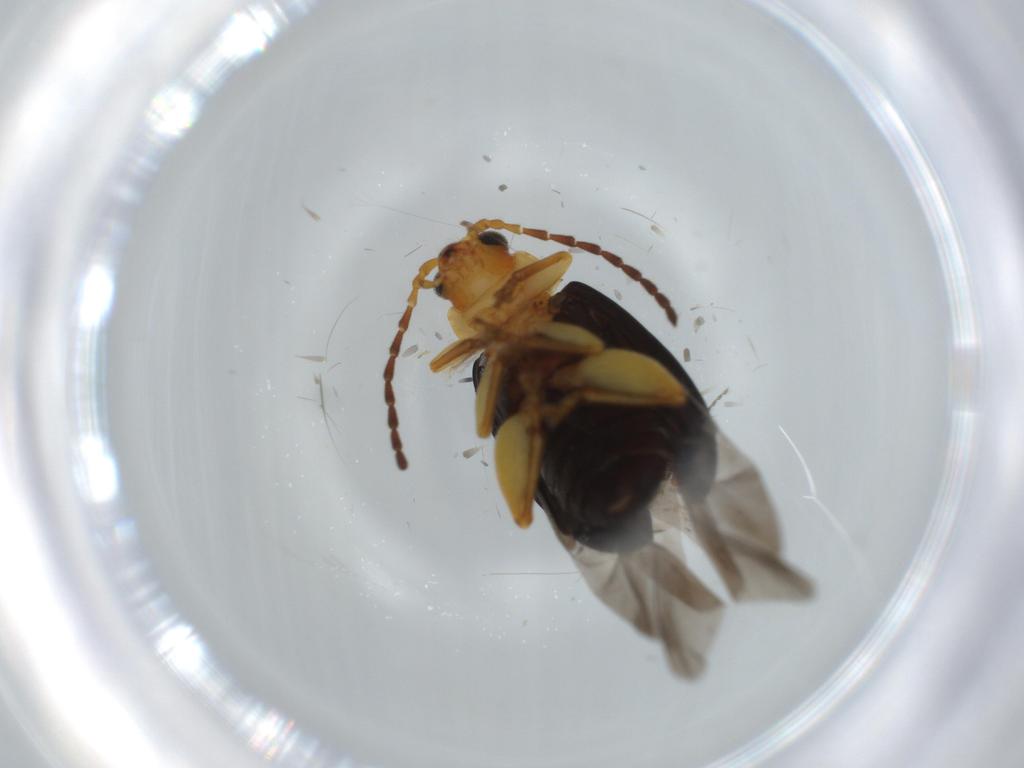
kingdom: Animalia
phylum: Arthropoda
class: Insecta
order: Coleoptera
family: Chrysomelidae
